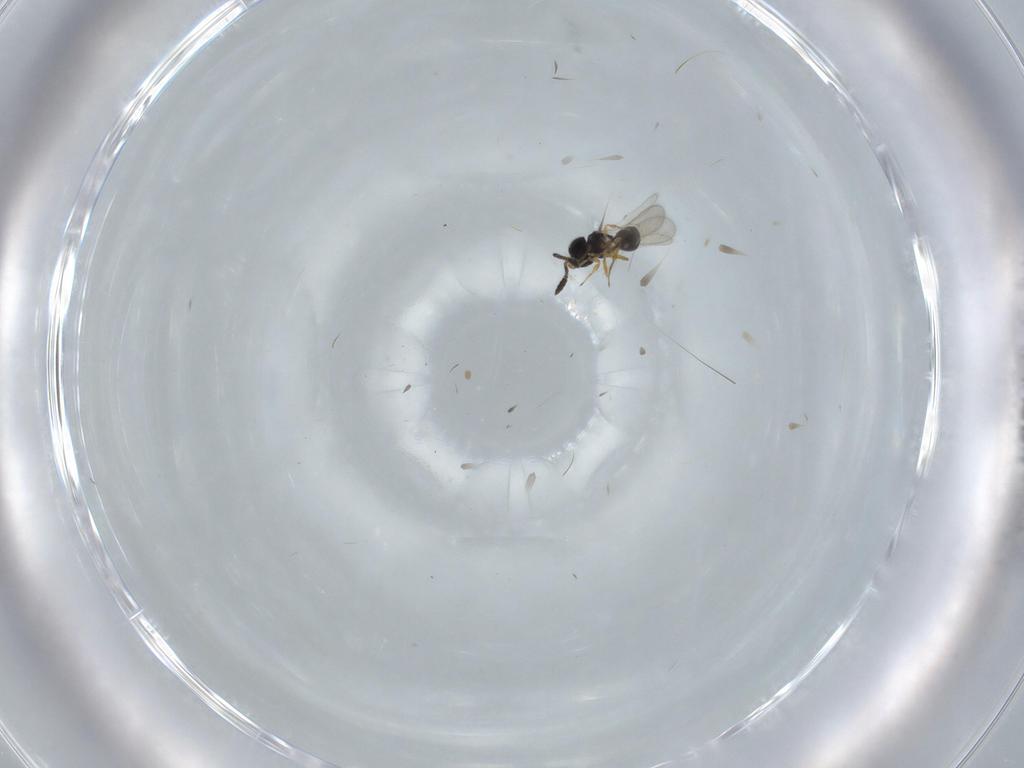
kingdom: Animalia
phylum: Arthropoda
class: Insecta
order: Hymenoptera
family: Scelionidae
